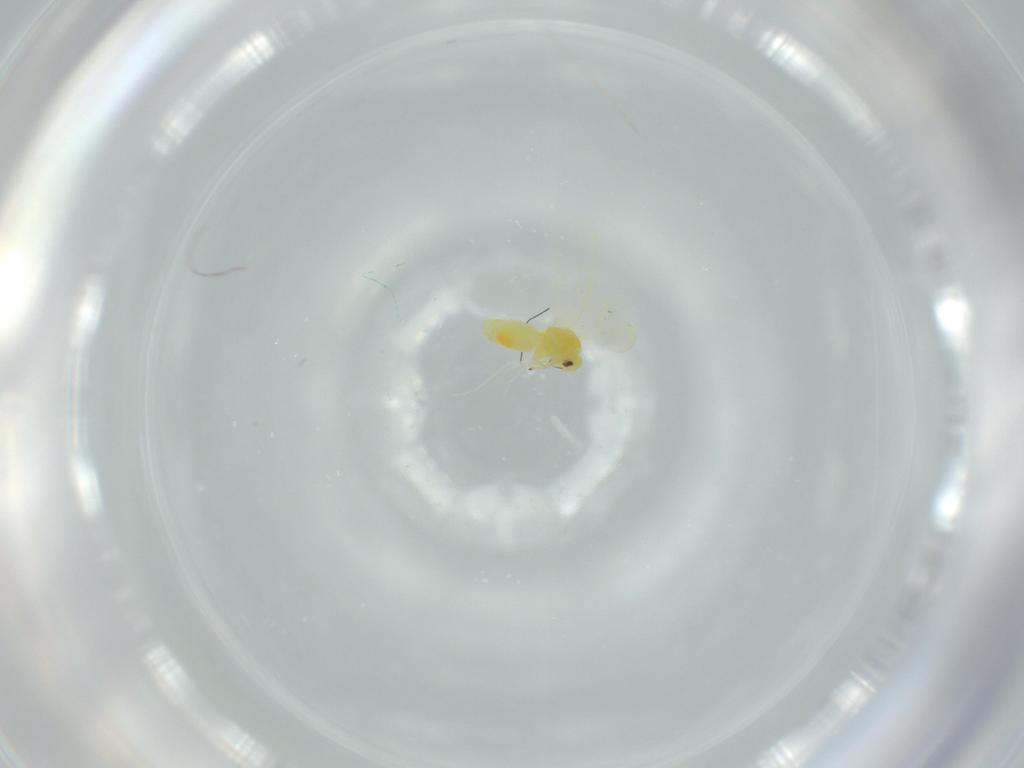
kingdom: Animalia
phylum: Arthropoda
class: Insecta
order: Hemiptera
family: Aleyrodidae
